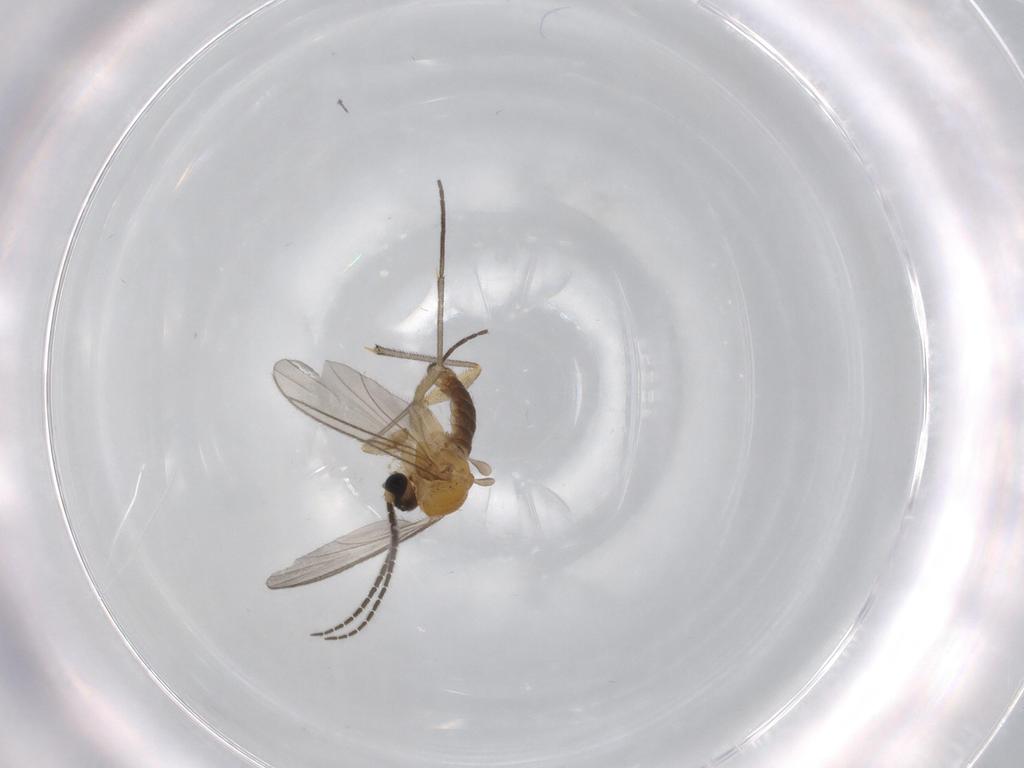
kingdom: Animalia
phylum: Arthropoda
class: Insecta
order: Diptera
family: Sciaridae
